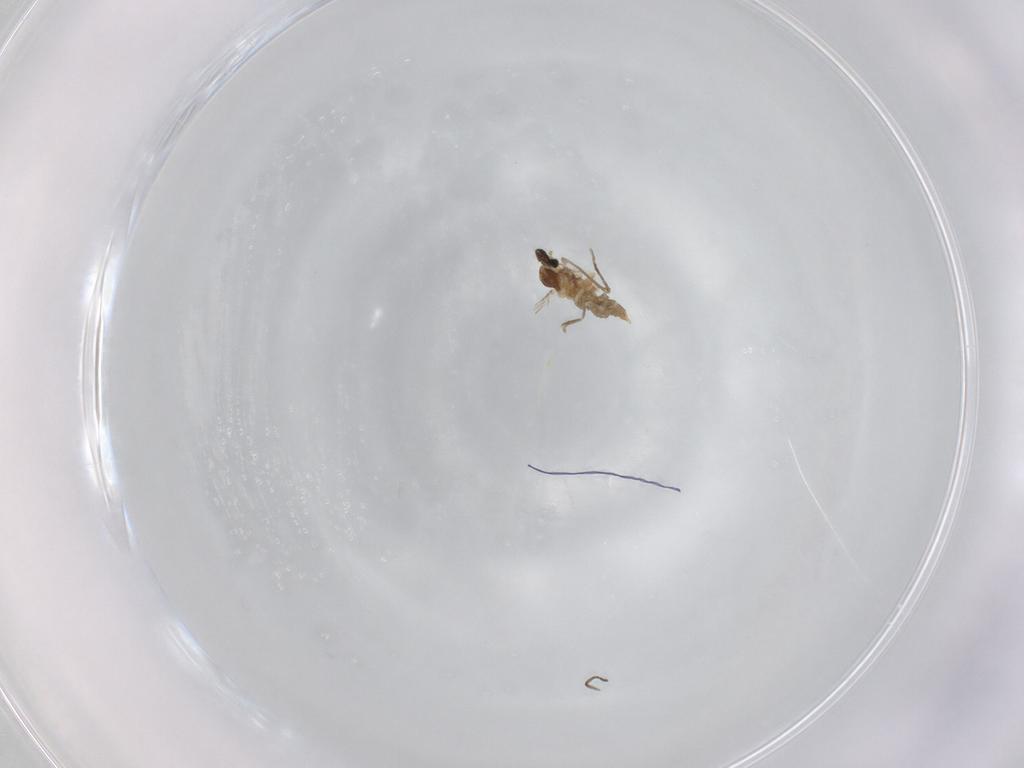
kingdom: Animalia
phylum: Arthropoda
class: Insecta
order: Diptera
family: Cecidomyiidae
